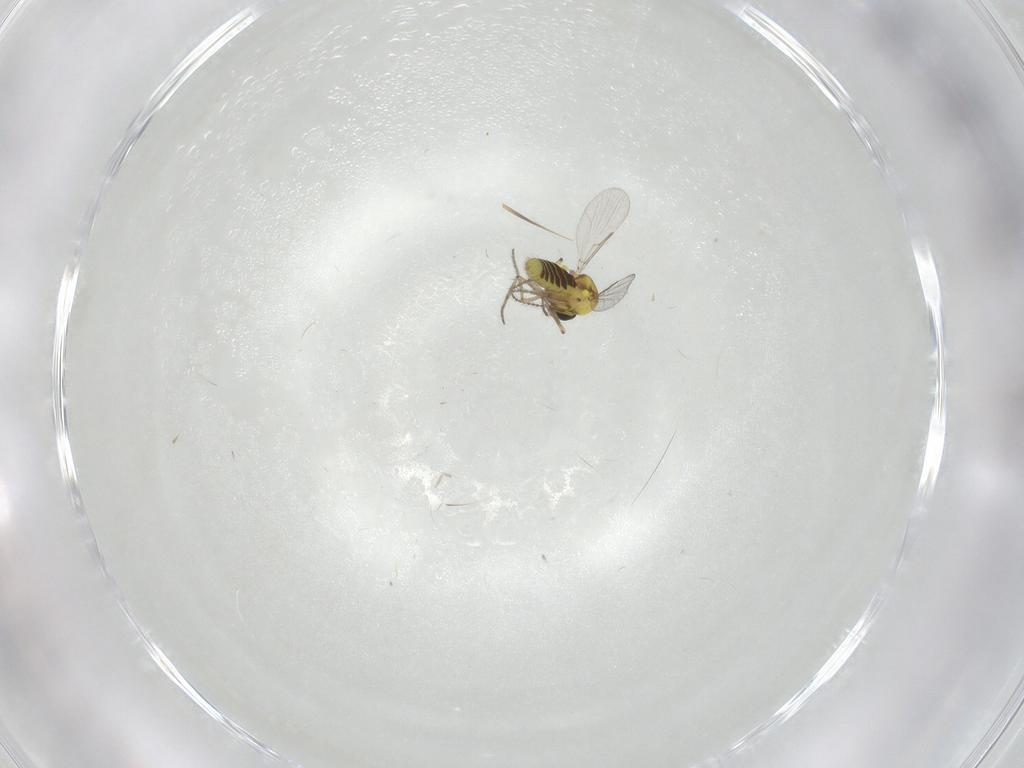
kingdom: Animalia
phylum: Arthropoda
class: Insecta
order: Diptera
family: Ceratopogonidae
